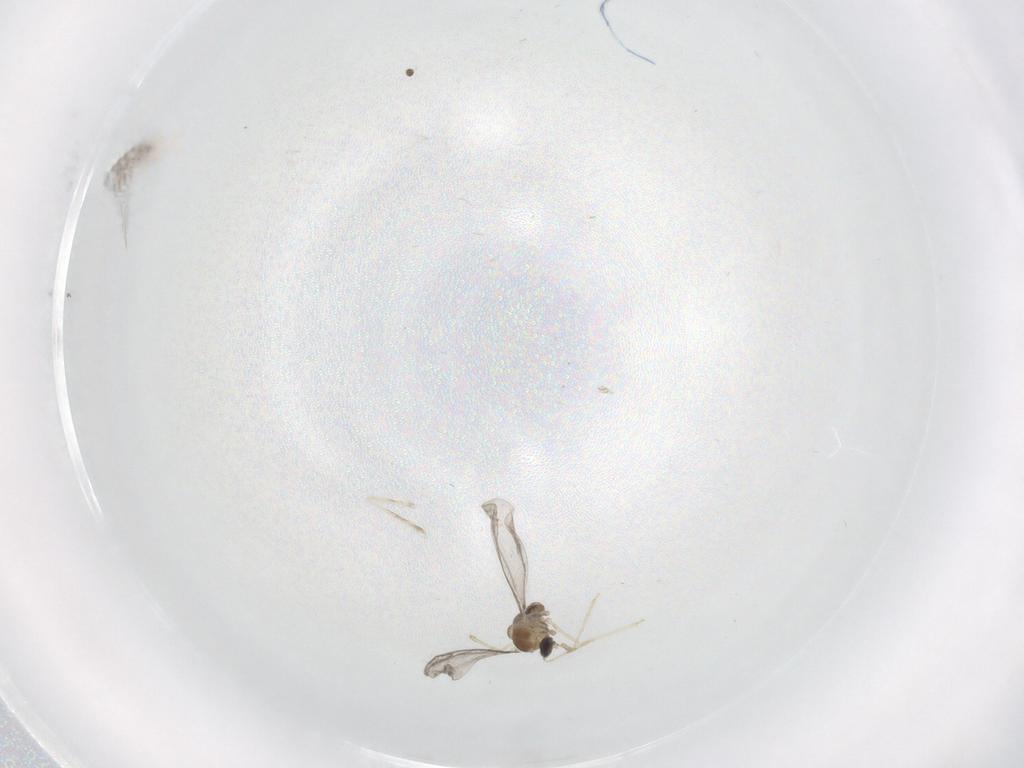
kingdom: Animalia
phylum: Arthropoda
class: Insecta
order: Diptera
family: Cecidomyiidae
